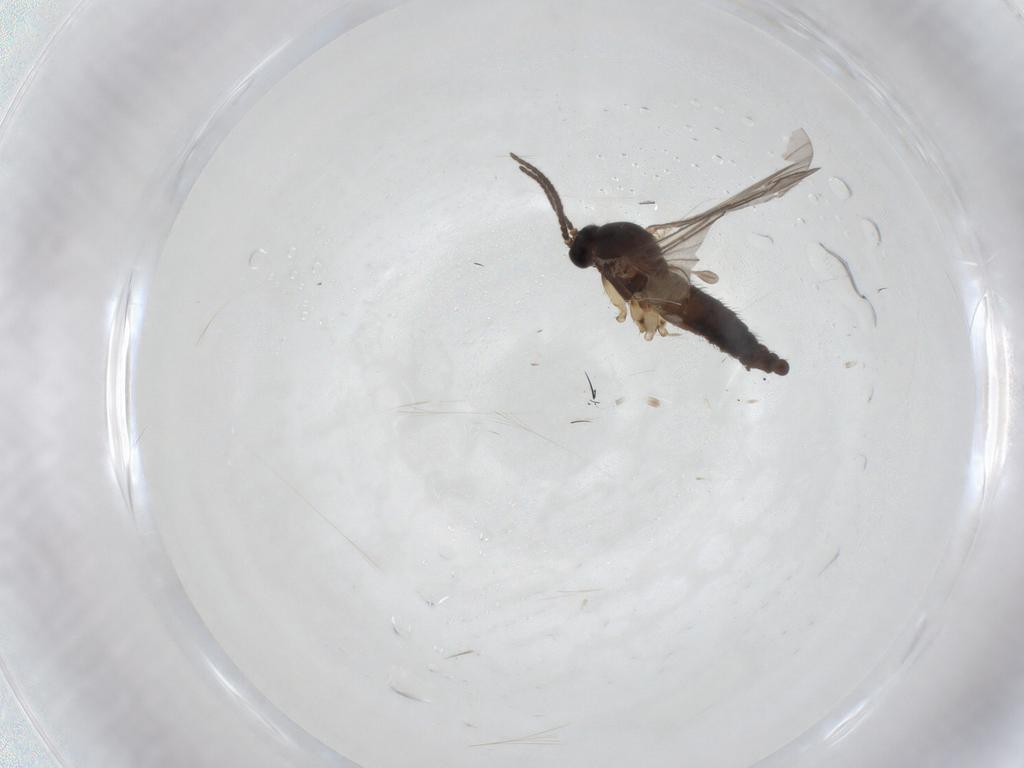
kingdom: Animalia
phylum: Arthropoda
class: Insecta
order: Diptera
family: Sciaridae
